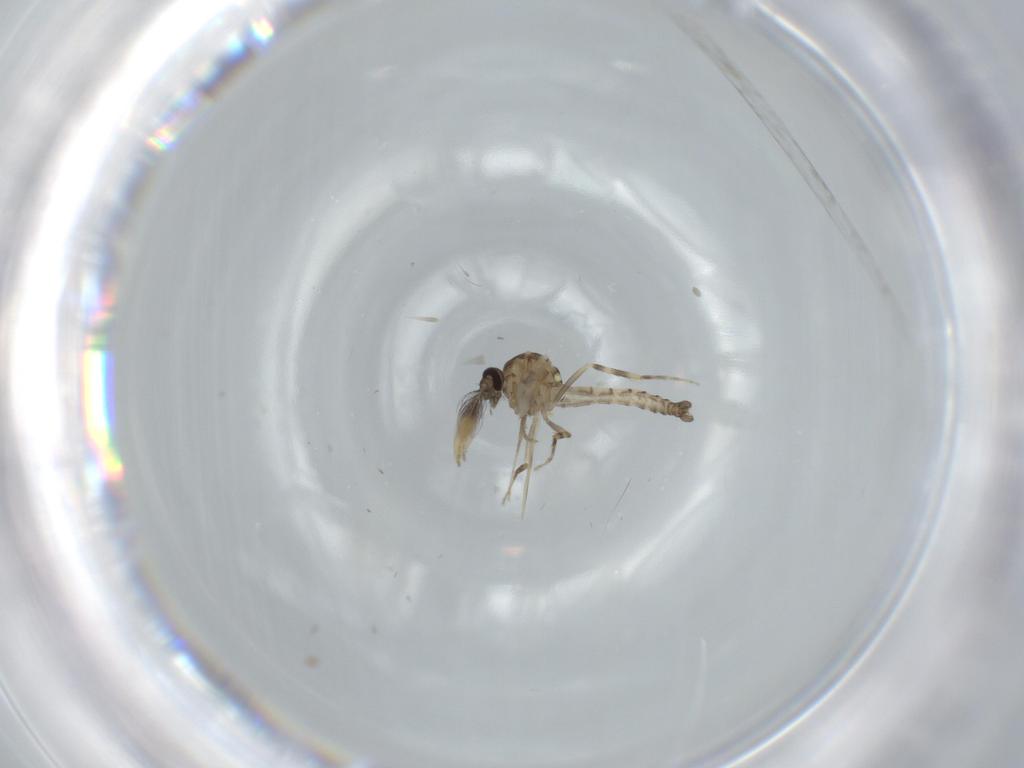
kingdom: Animalia
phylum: Arthropoda
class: Insecta
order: Diptera
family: Ceratopogonidae
